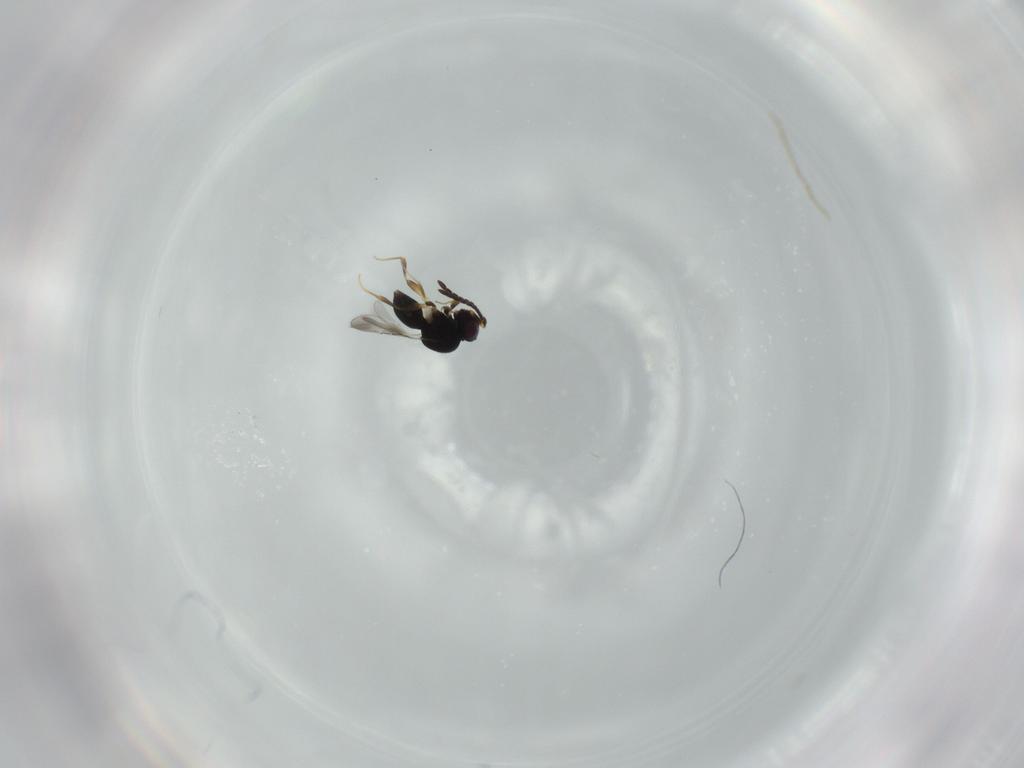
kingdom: Animalia
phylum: Arthropoda
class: Insecta
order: Hymenoptera
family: Ceraphronidae
